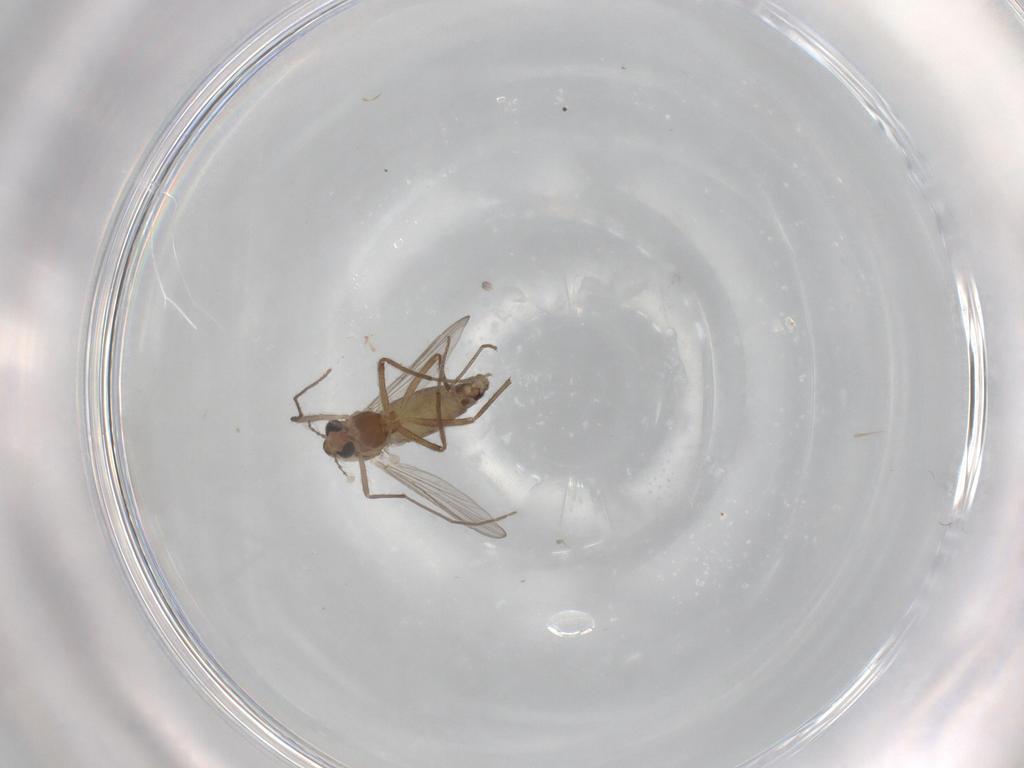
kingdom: Animalia
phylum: Arthropoda
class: Insecta
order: Diptera
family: Chironomidae
